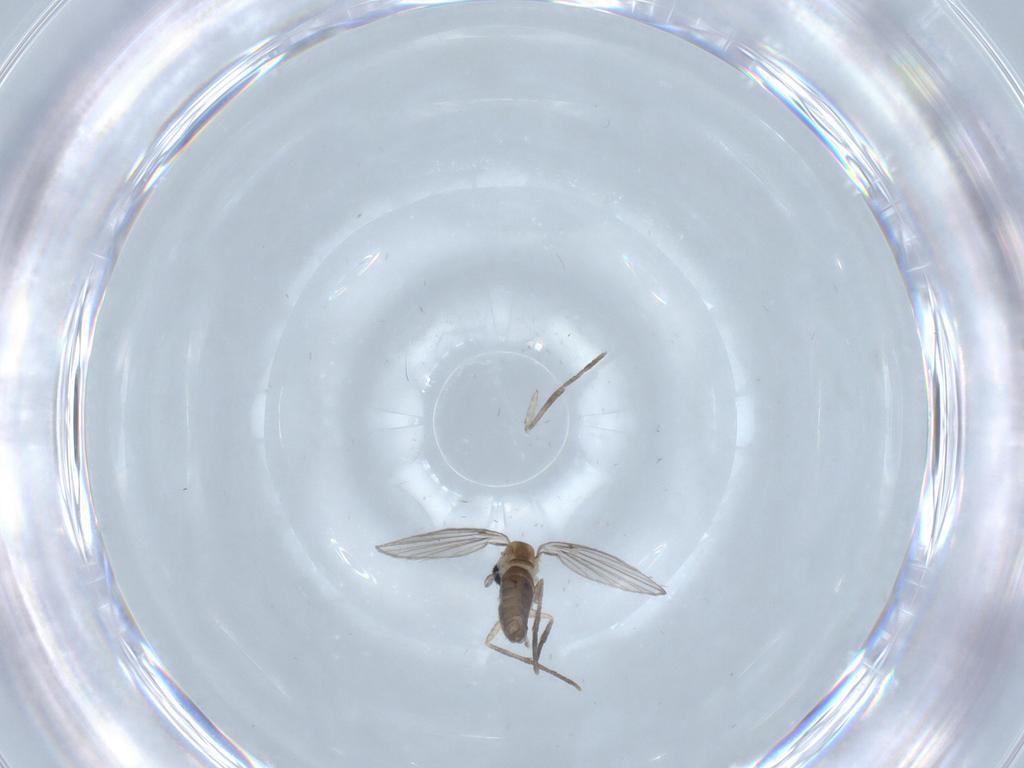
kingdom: Animalia
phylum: Arthropoda
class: Insecta
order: Diptera
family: Psychodidae
